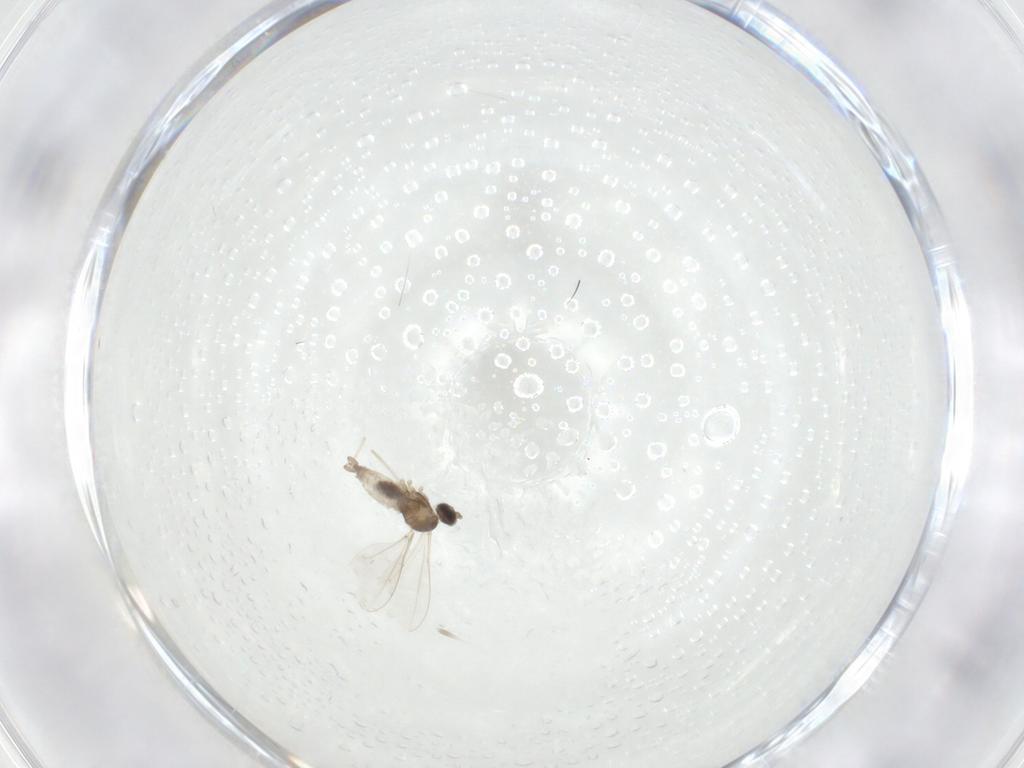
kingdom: Animalia
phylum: Arthropoda
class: Insecta
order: Diptera
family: Cecidomyiidae
